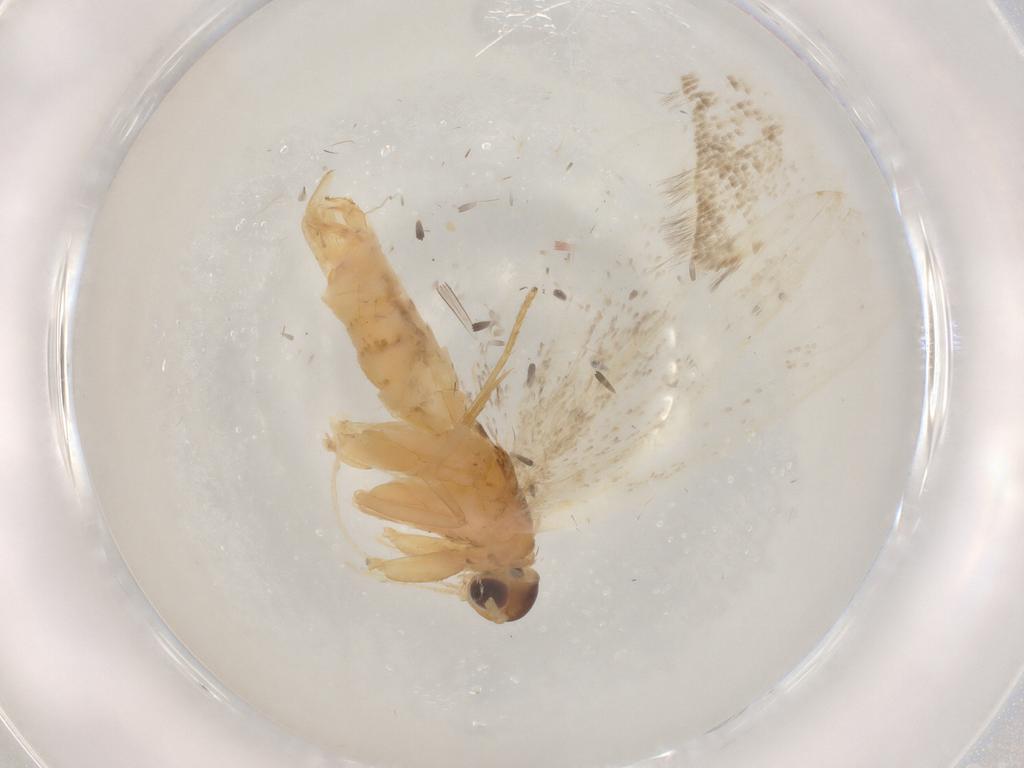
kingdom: Animalia
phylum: Arthropoda
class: Insecta
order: Lepidoptera
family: Lecithoceridae
